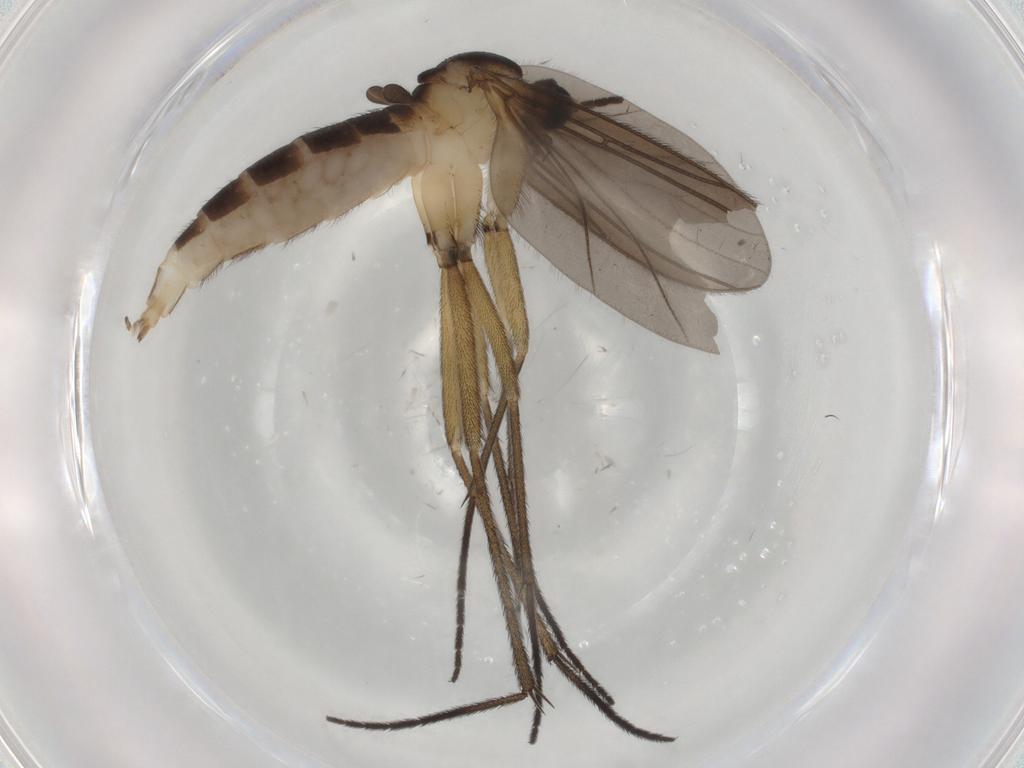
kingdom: Animalia
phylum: Arthropoda
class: Insecta
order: Diptera
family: Sciaridae
